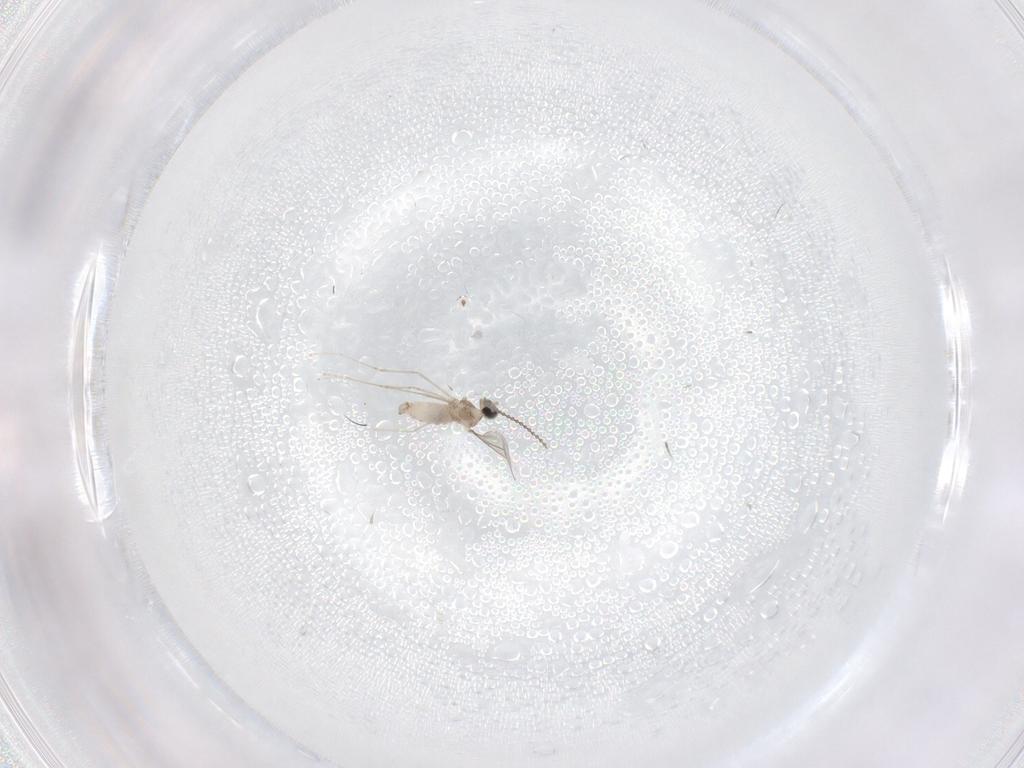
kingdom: Animalia
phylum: Arthropoda
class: Insecta
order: Diptera
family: Cecidomyiidae
